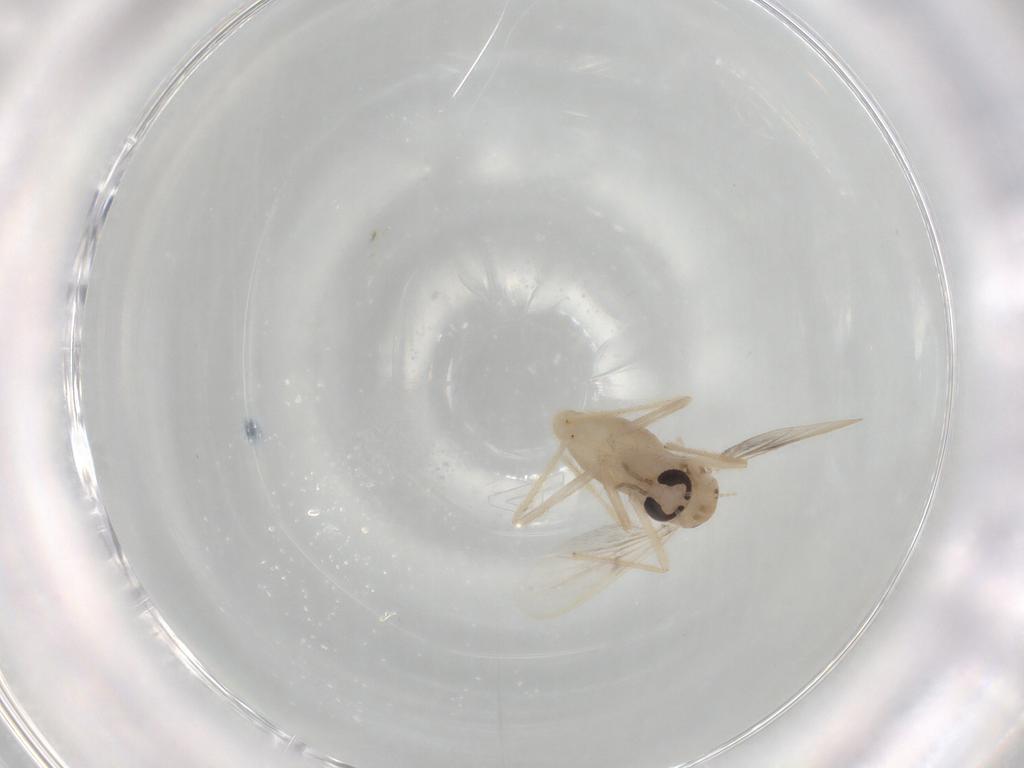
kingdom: Animalia
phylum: Arthropoda
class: Insecta
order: Diptera
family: Chironomidae
